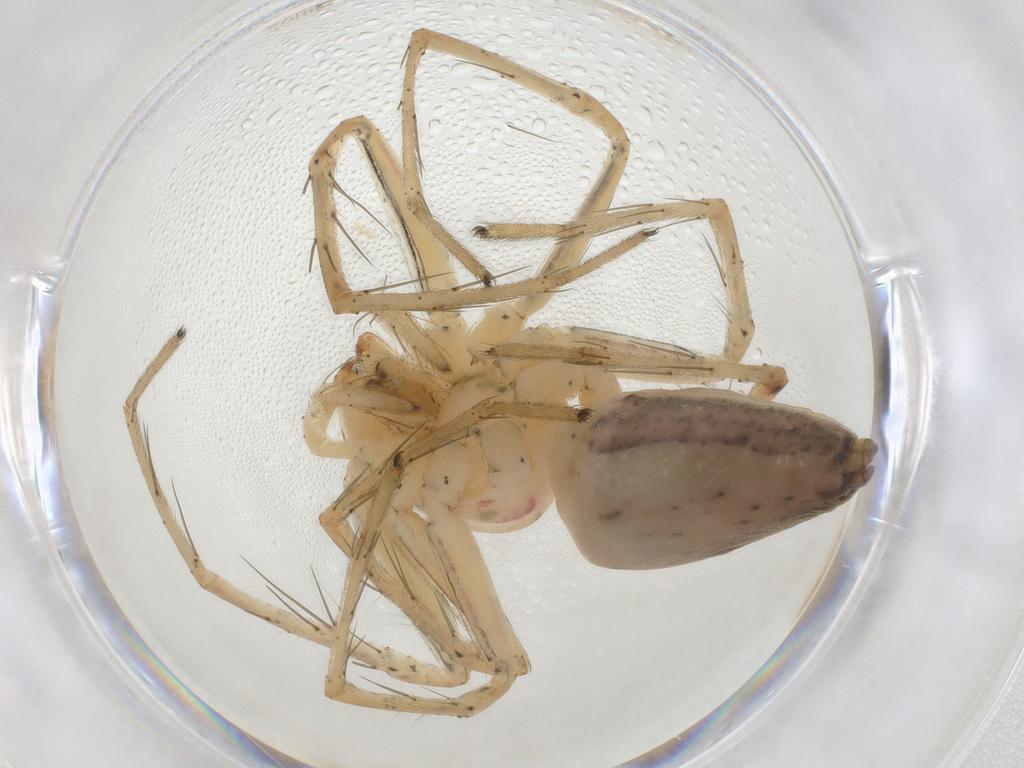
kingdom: Animalia
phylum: Arthropoda
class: Arachnida
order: Araneae
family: Oxyopidae
